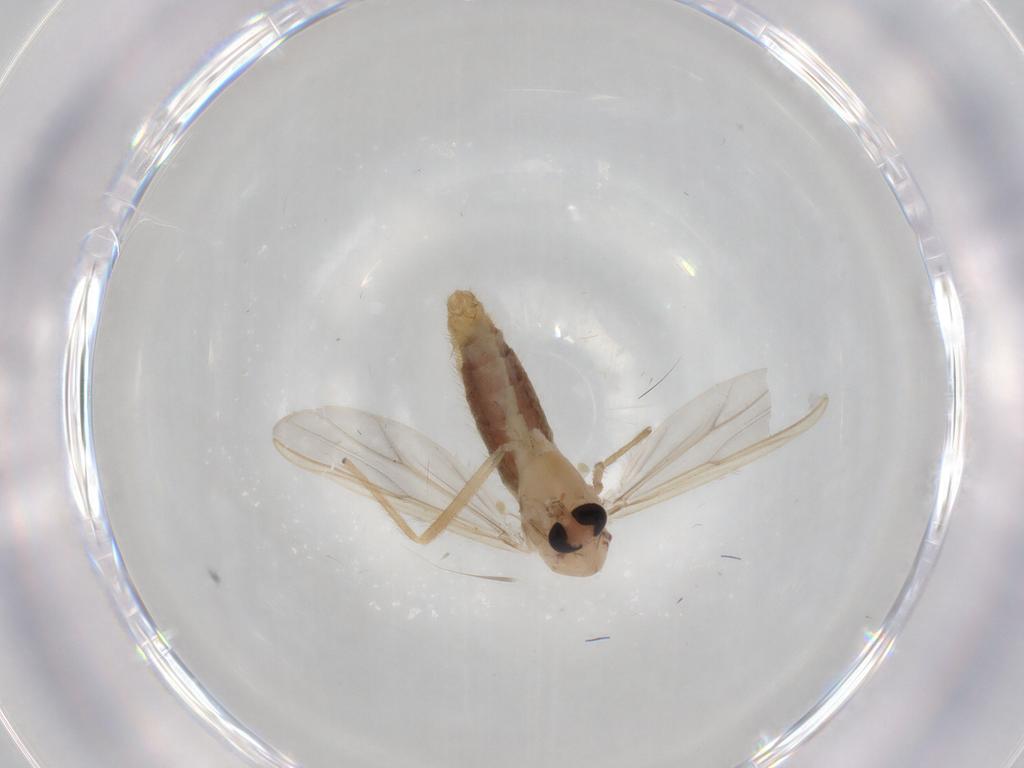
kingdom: Animalia
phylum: Arthropoda
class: Insecta
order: Diptera
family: Chironomidae
